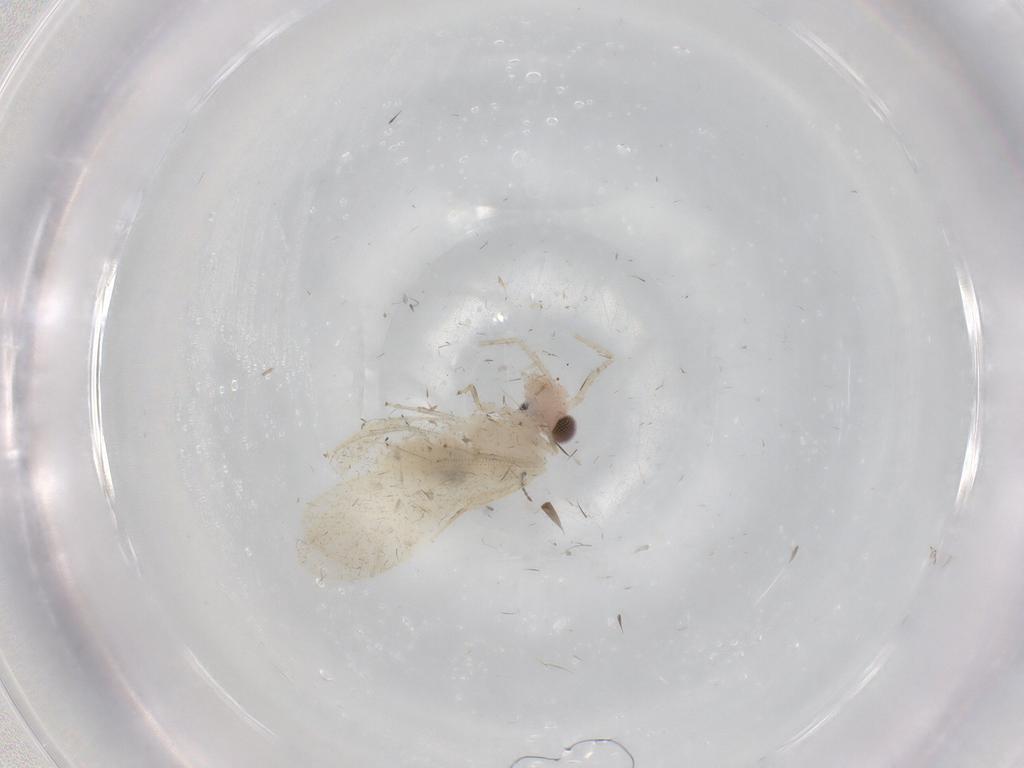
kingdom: Animalia
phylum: Arthropoda
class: Insecta
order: Psocodea
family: Caeciliusidae
